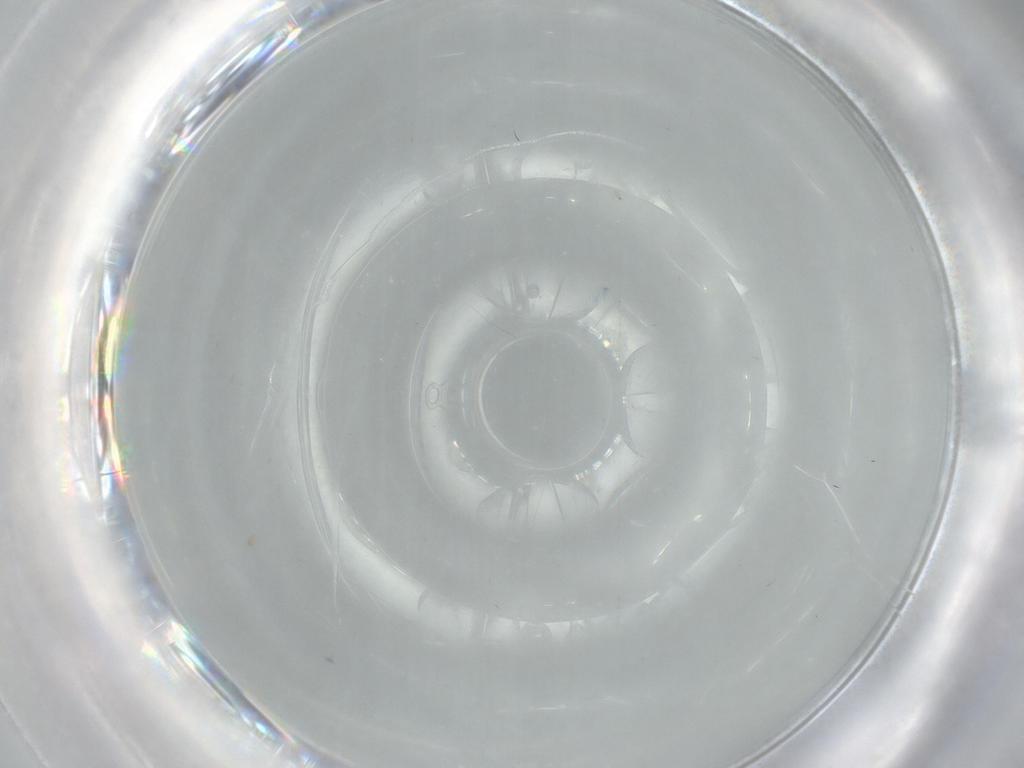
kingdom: Animalia
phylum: Arthropoda
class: Insecta
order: Diptera
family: Phoridae
